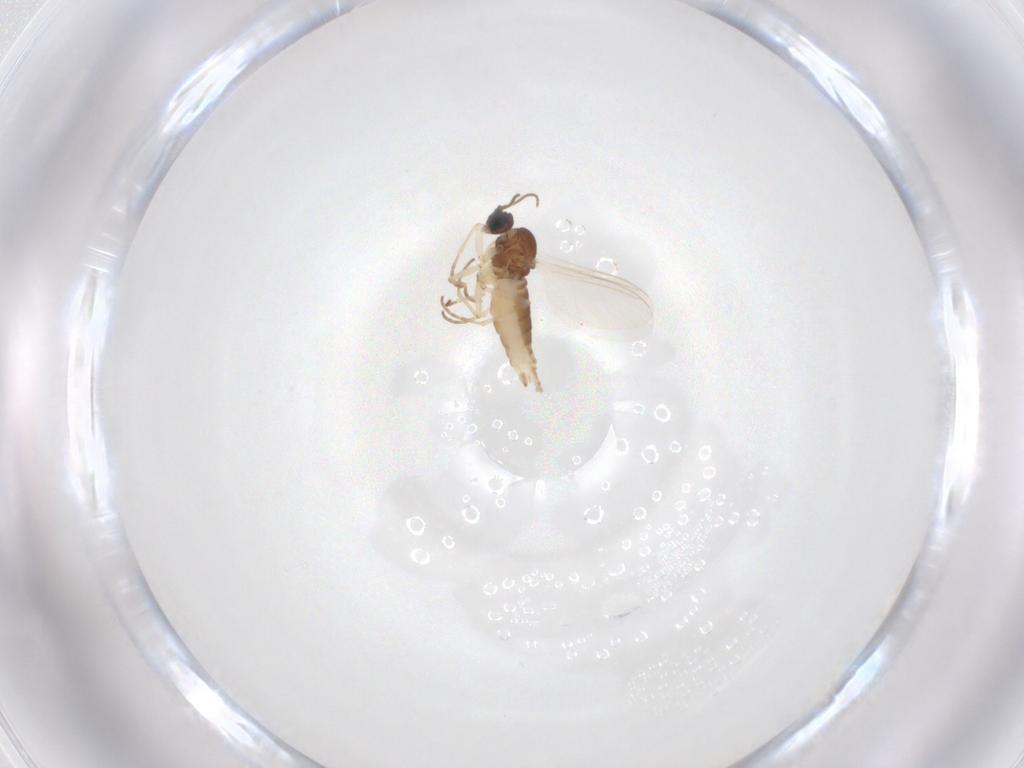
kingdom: Animalia
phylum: Arthropoda
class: Insecta
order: Diptera
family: Sciaridae
